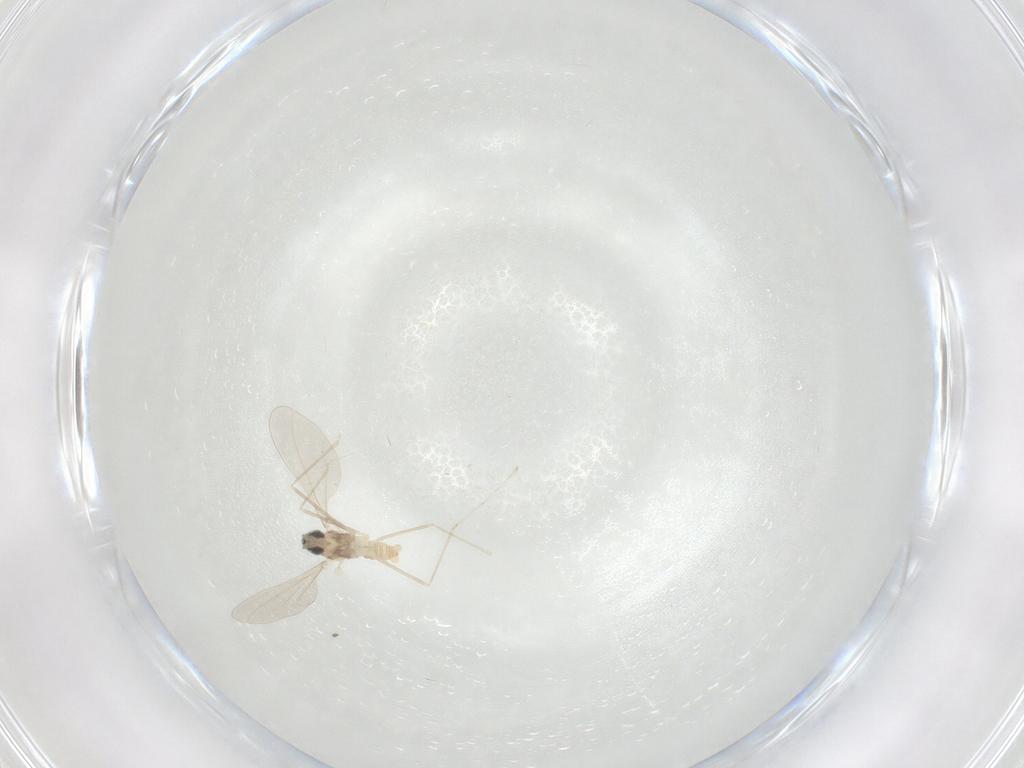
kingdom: Animalia
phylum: Arthropoda
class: Insecta
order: Diptera
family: Cecidomyiidae
